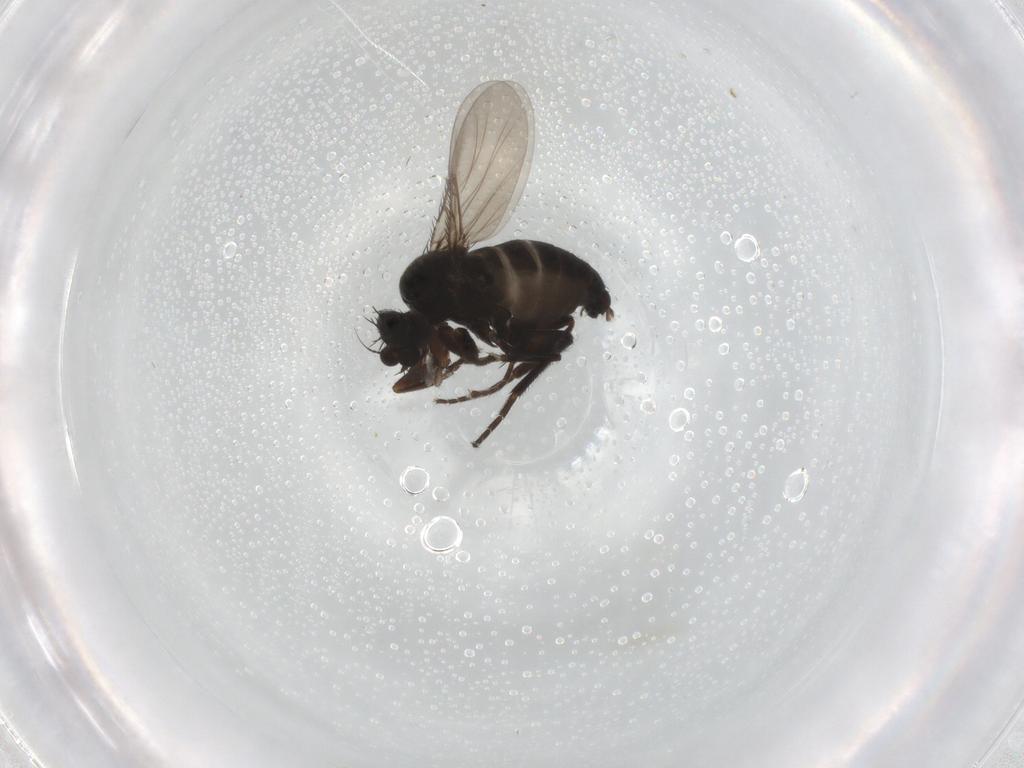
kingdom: Animalia
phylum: Arthropoda
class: Insecta
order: Diptera
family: Phoridae
